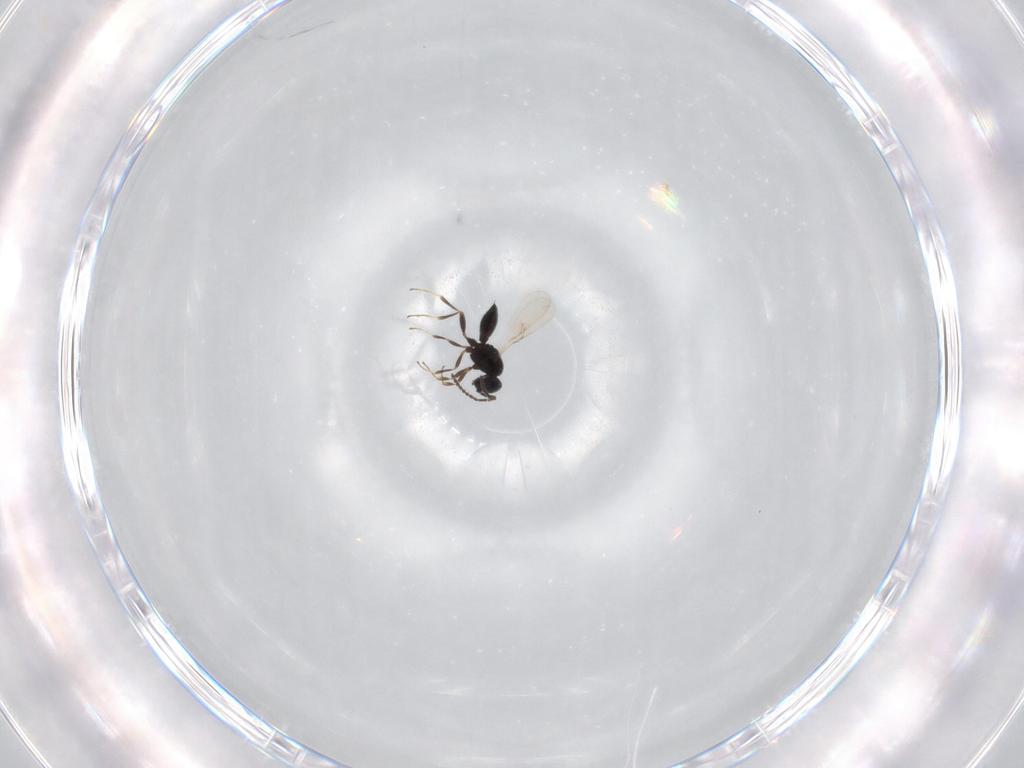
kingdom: Animalia
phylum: Arthropoda
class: Insecta
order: Hymenoptera
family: Scelionidae
